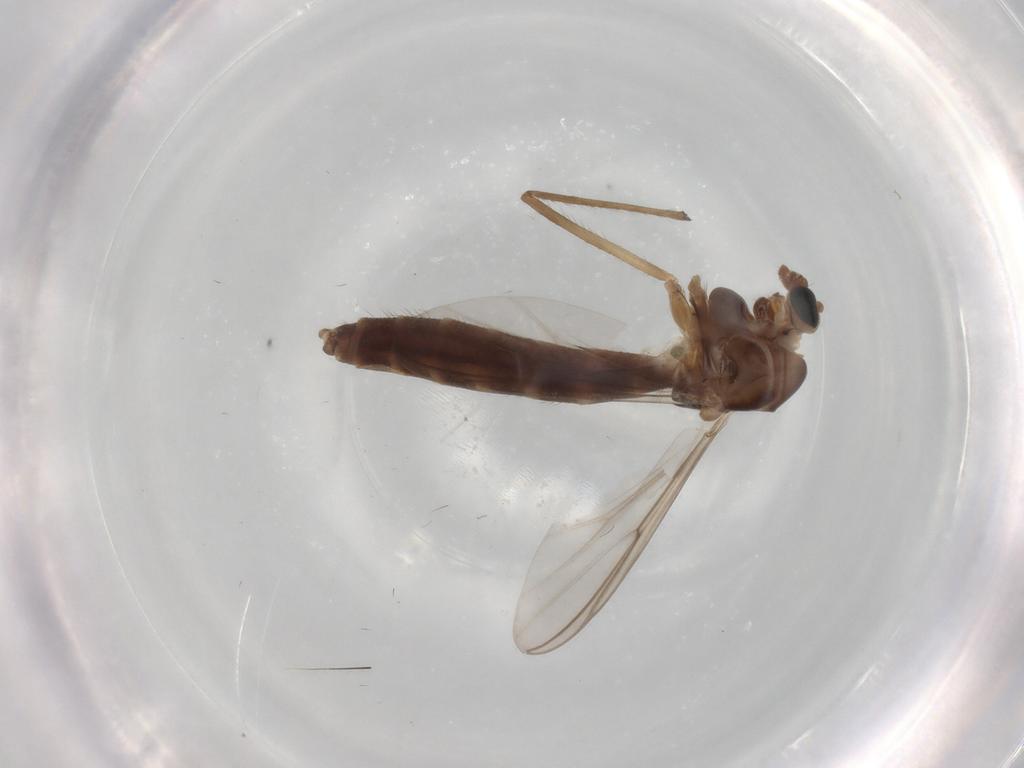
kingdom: Animalia
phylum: Arthropoda
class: Insecta
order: Diptera
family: Chironomidae
